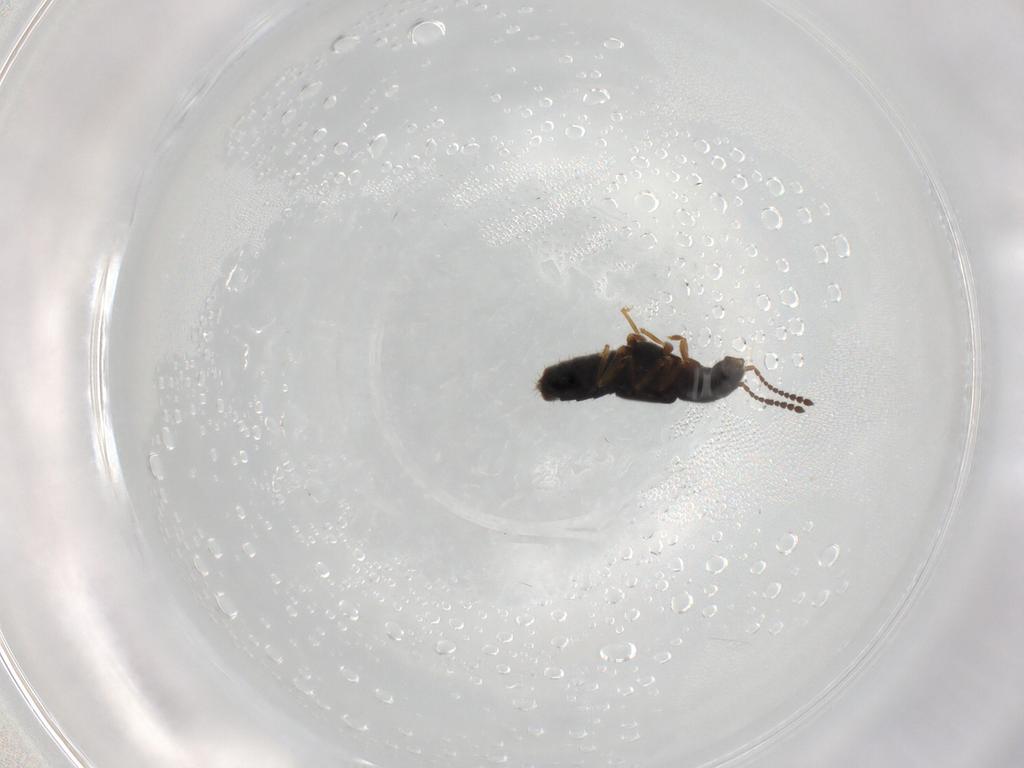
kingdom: Animalia
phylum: Arthropoda
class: Insecta
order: Coleoptera
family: Staphylinidae
